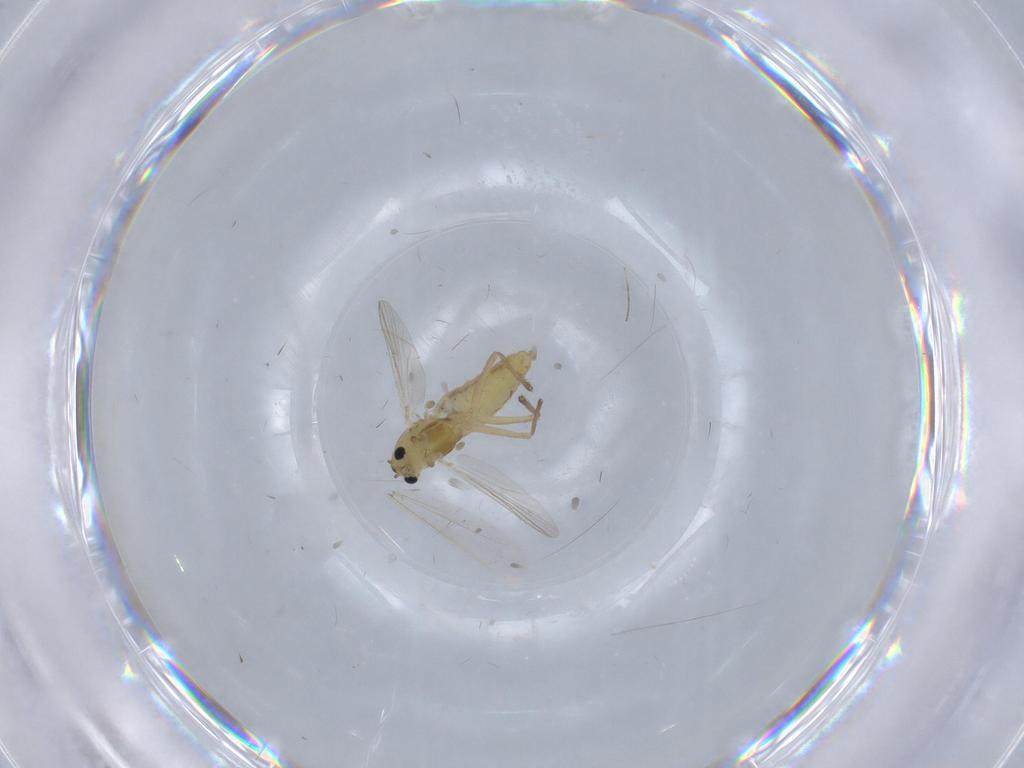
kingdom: Animalia
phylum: Arthropoda
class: Insecta
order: Diptera
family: Chironomidae
